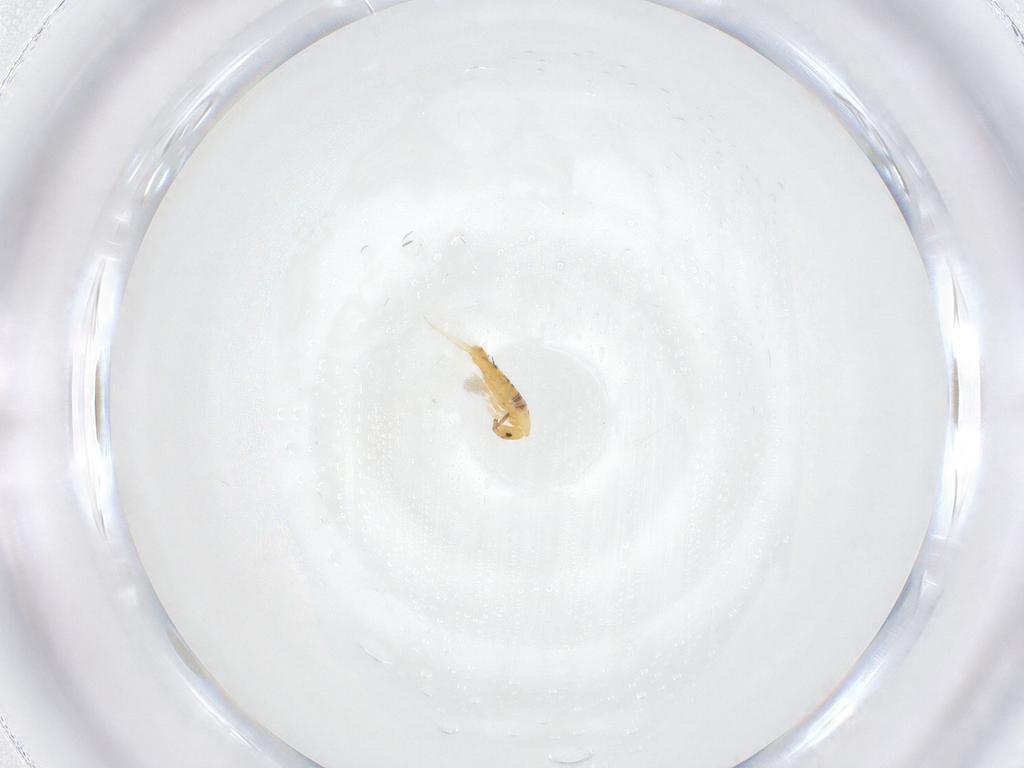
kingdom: Animalia
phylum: Arthropoda
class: Collembola
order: Entomobryomorpha
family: Entomobryidae
